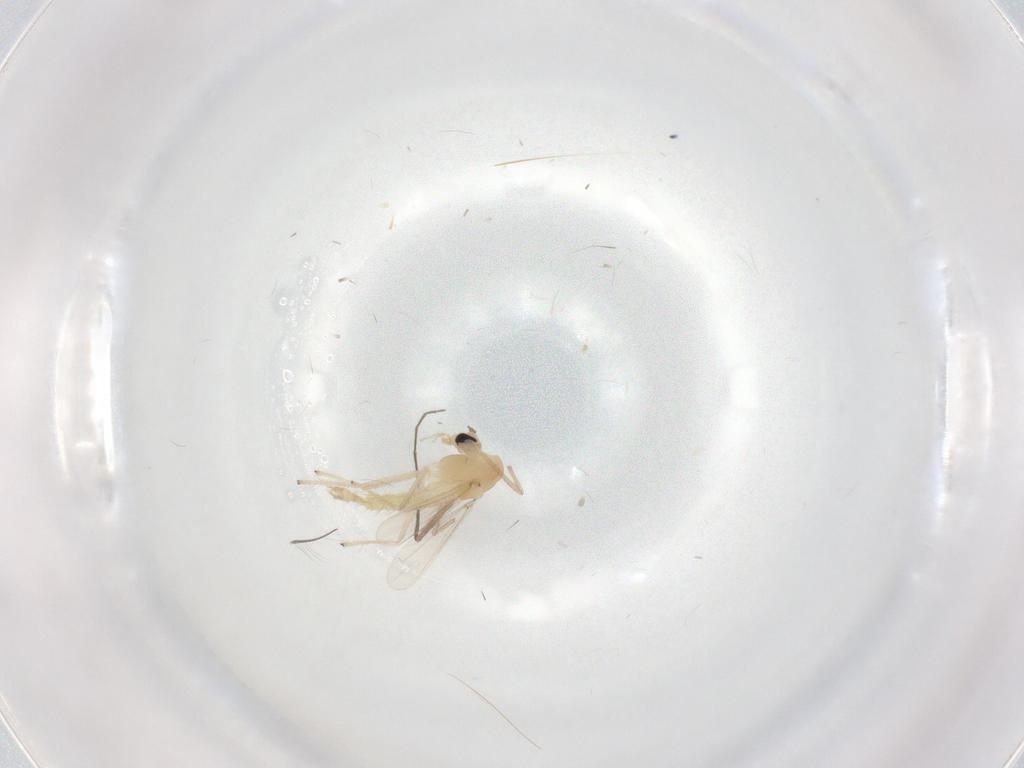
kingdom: Animalia
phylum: Arthropoda
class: Insecta
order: Diptera
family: Chironomidae
